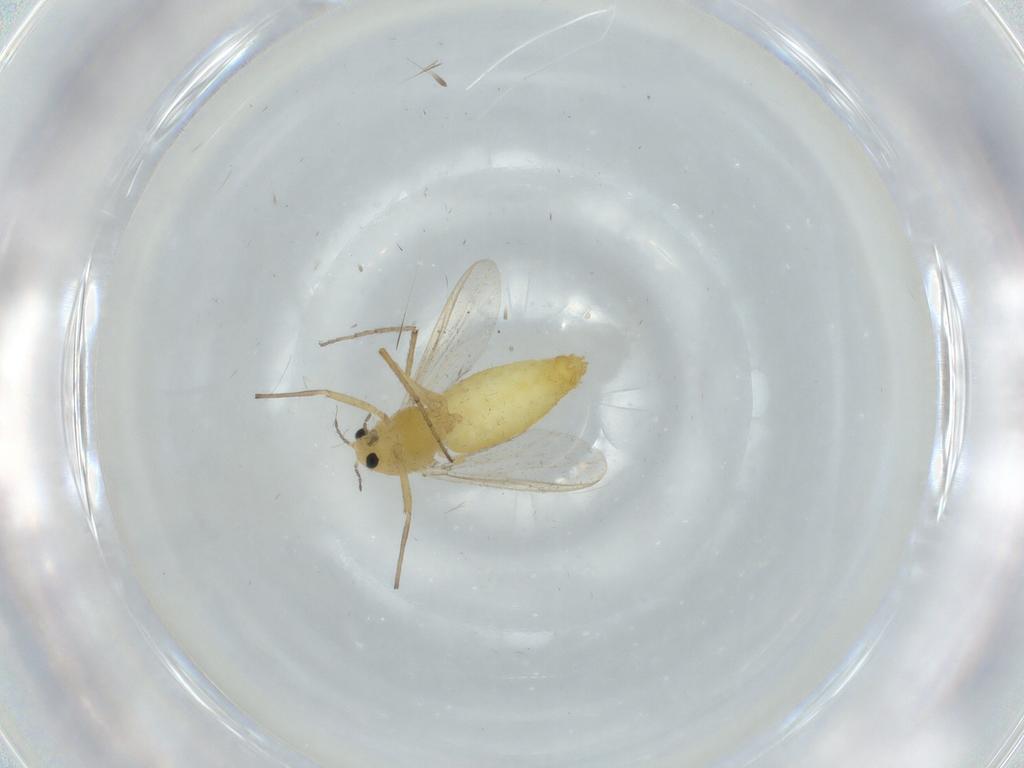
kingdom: Animalia
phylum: Arthropoda
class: Insecta
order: Diptera
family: Chironomidae
